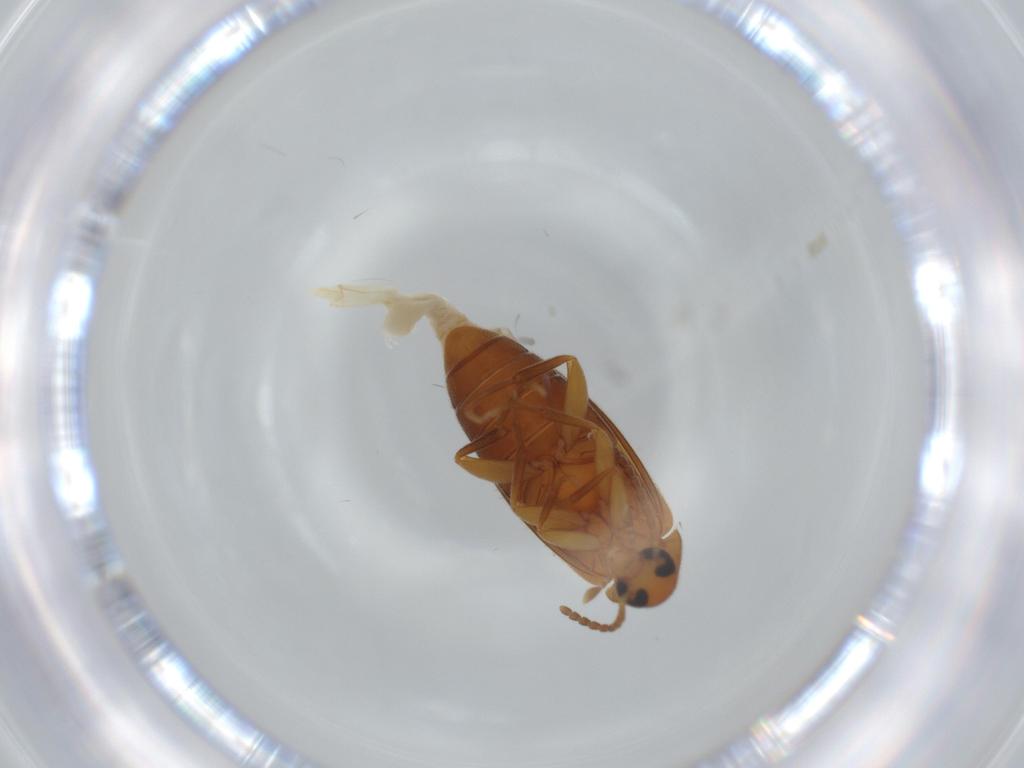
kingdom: Animalia
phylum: Arthropoda
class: Insecta
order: Coleoptera
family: Scraptiidae
